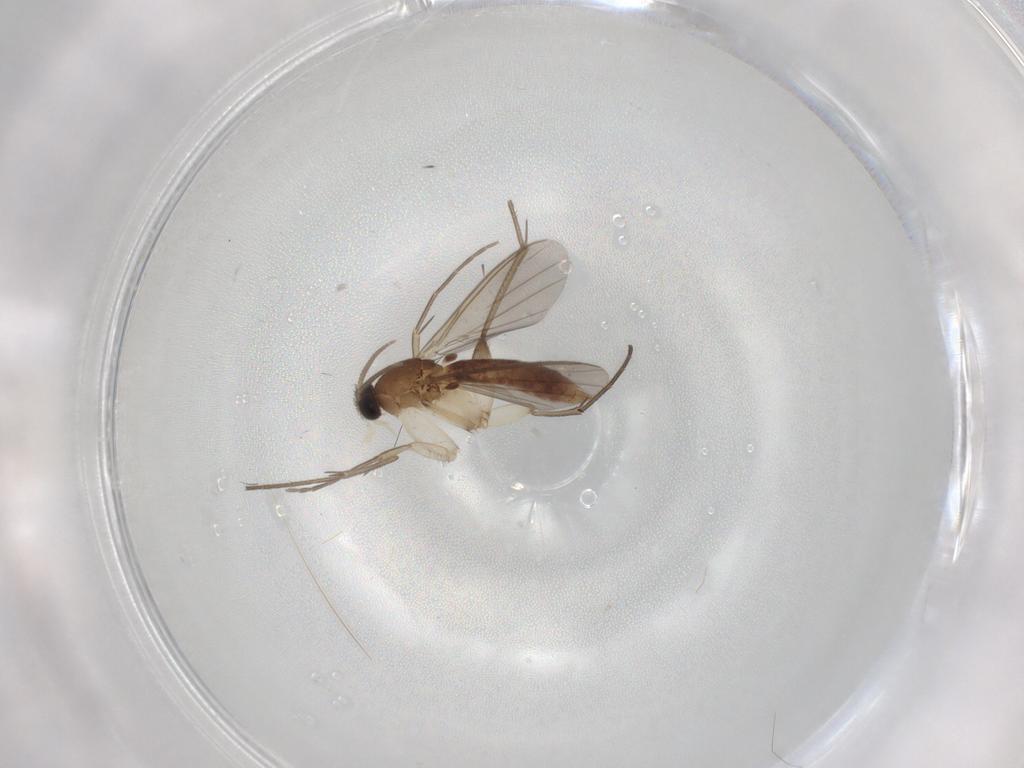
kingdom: Animalia
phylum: Arthropoda
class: Insecta
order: Diptera
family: Mycetophilidae
